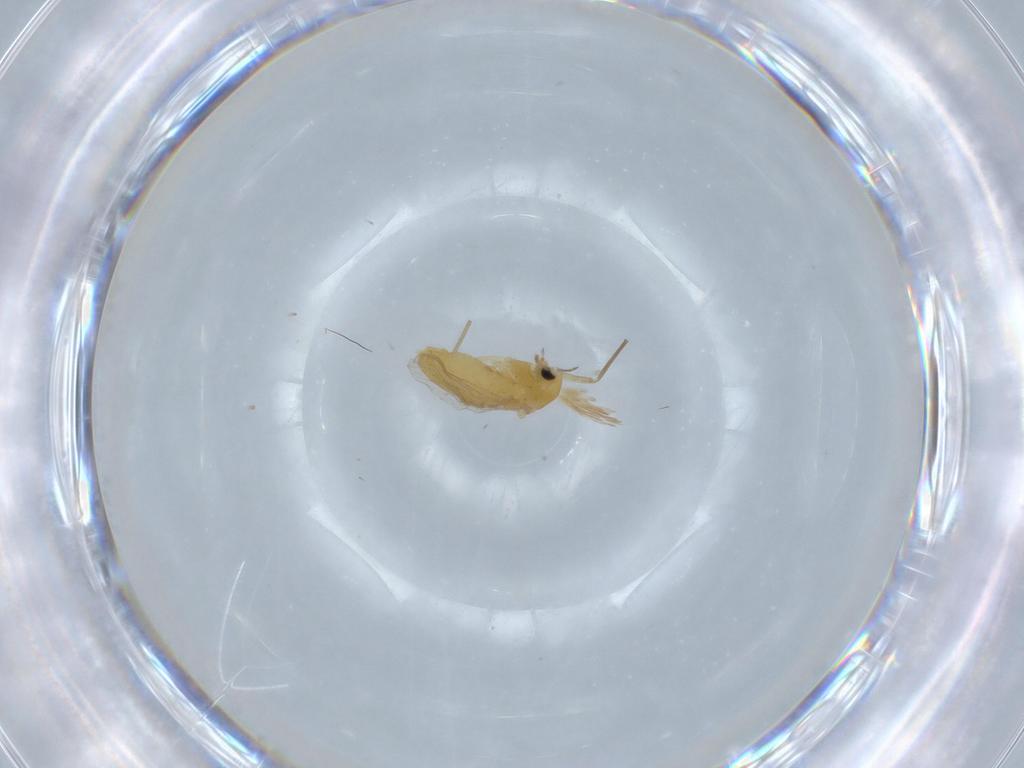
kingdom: Animalia
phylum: Arthropoda
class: Insecta
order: Diptera
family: Chironomidae
